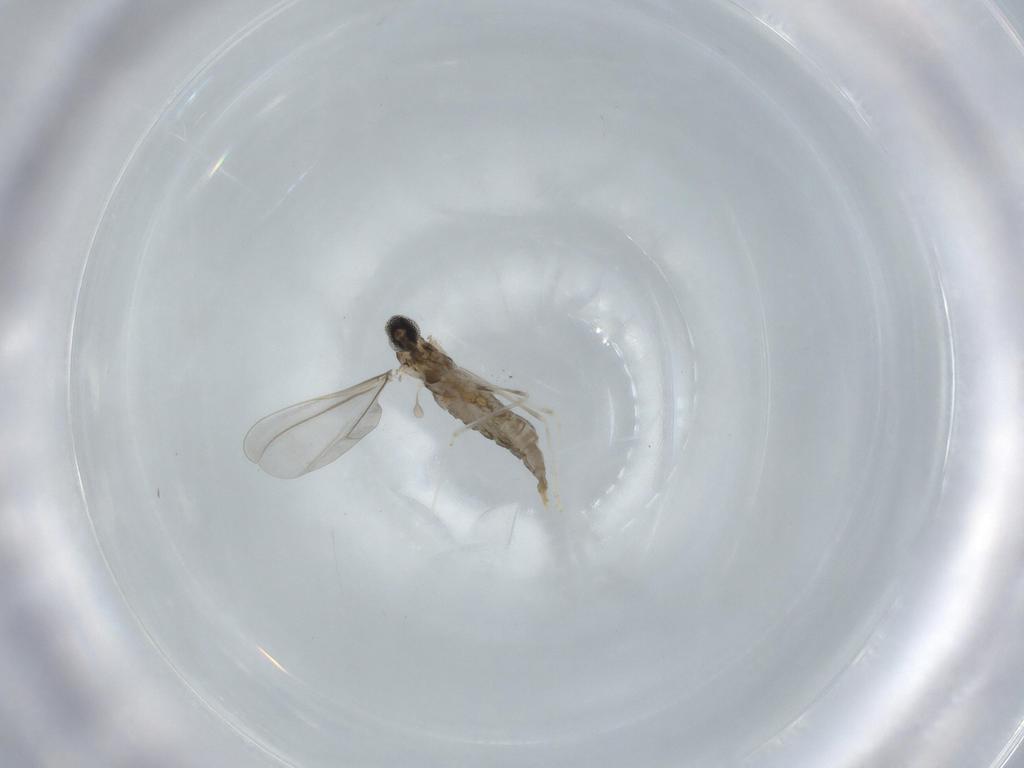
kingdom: Animalia
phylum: Arthropoda
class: Insecta
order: Diptera
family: Cecidomyiidae
